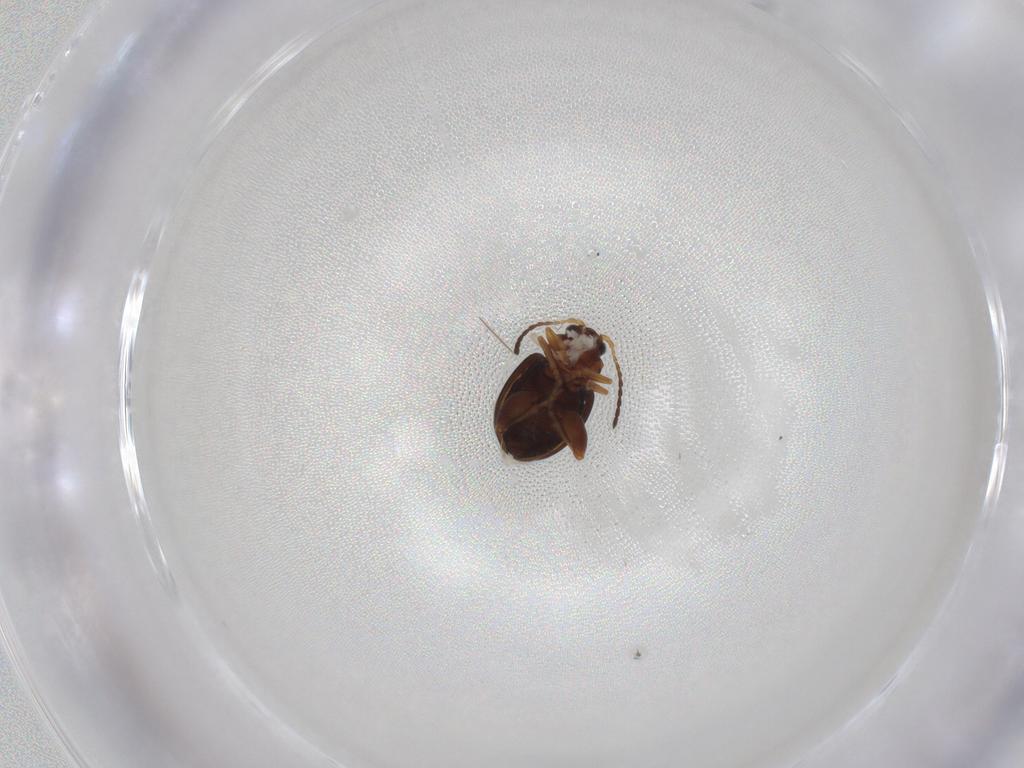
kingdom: Animalia
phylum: Arthropoda
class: Insecta
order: Coleoptera
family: Chrysomelidae
